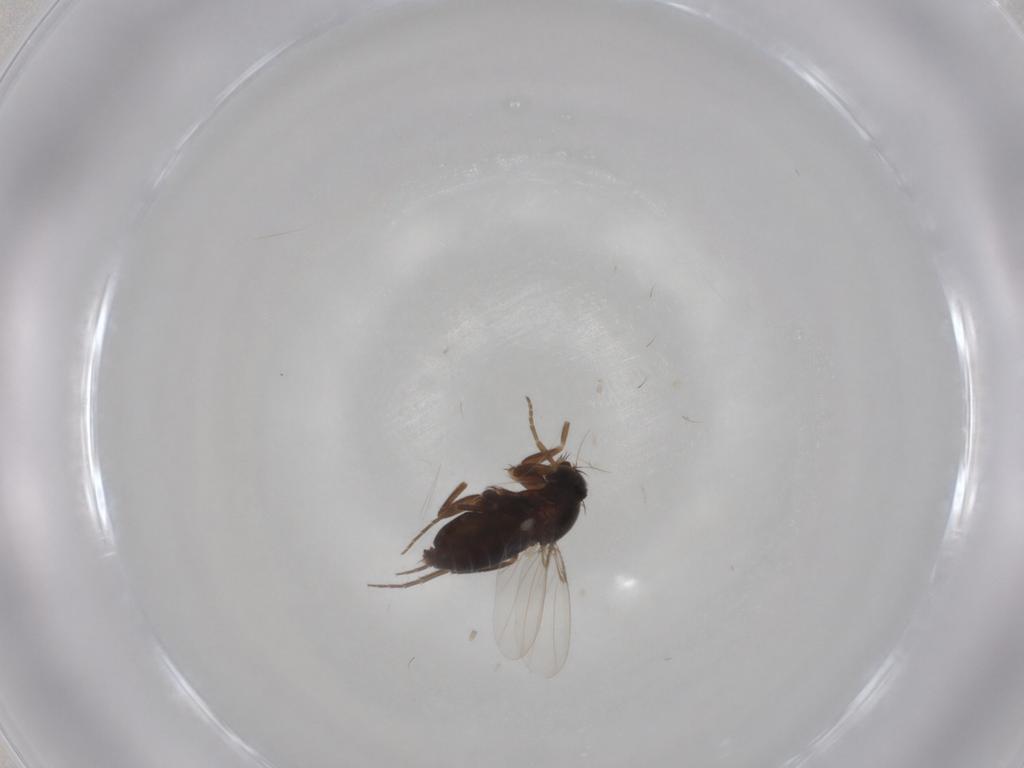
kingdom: Animalia
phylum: Arthropoda
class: Insecta
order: Diptera
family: Phoridae
